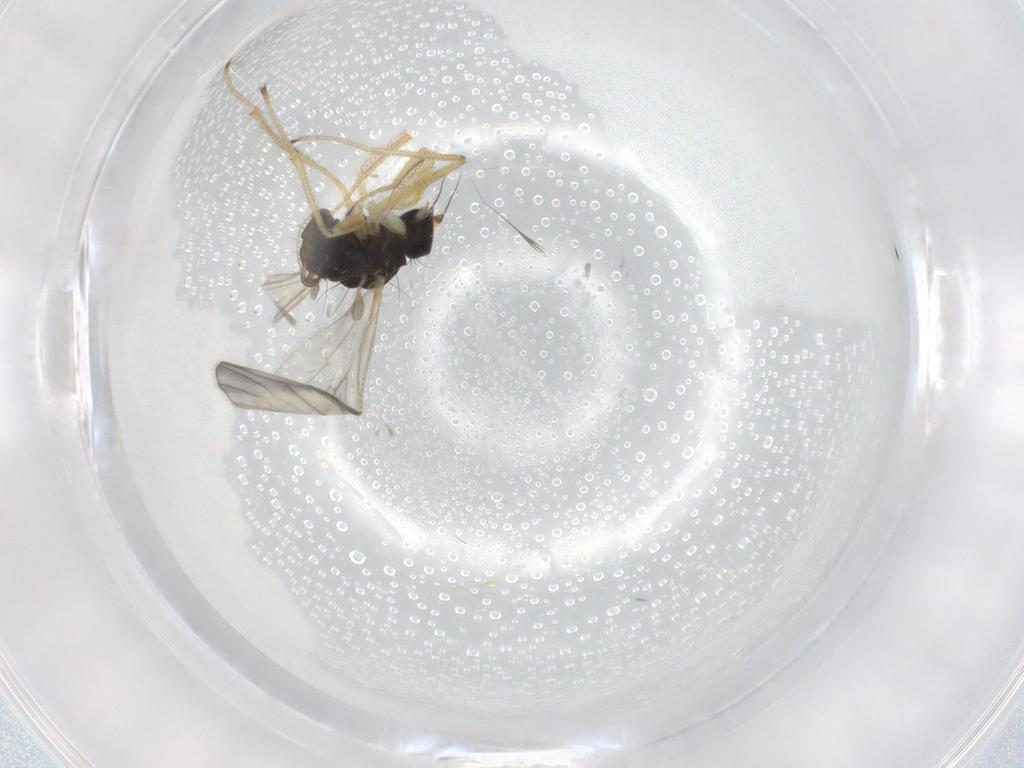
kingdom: Animalia
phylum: Arthropoda
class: Insecta
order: Diptera
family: Empididae
